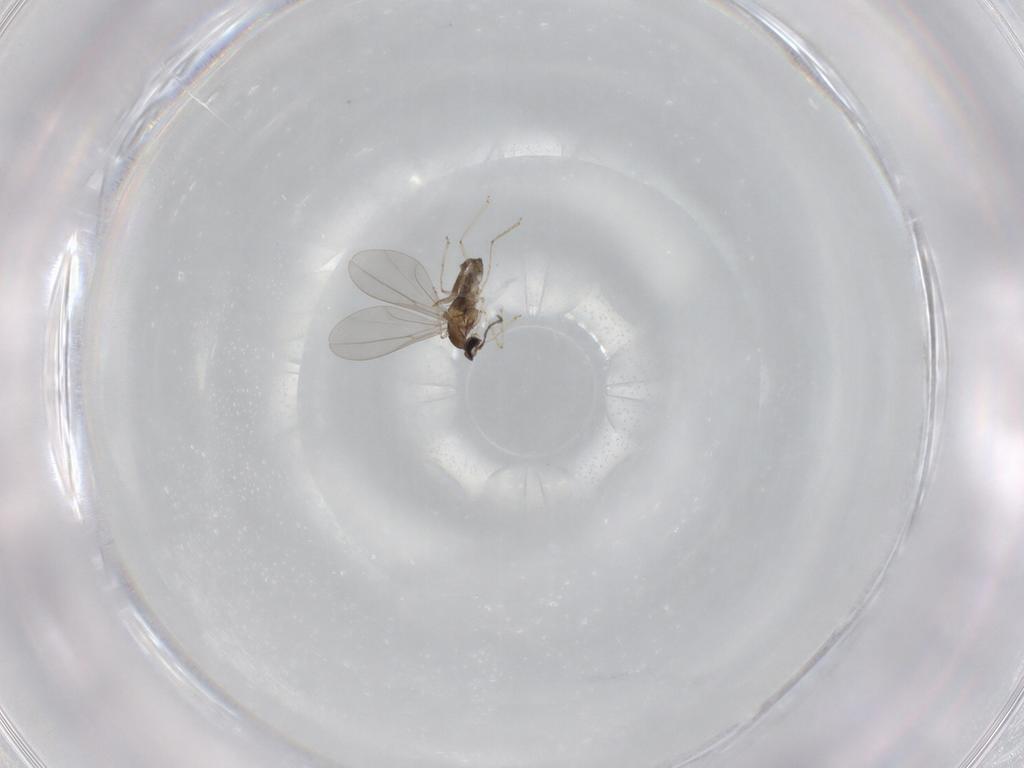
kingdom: Animalia
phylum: Arthropoda
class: Insecta
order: Diptera
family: Cecidomyiidae
